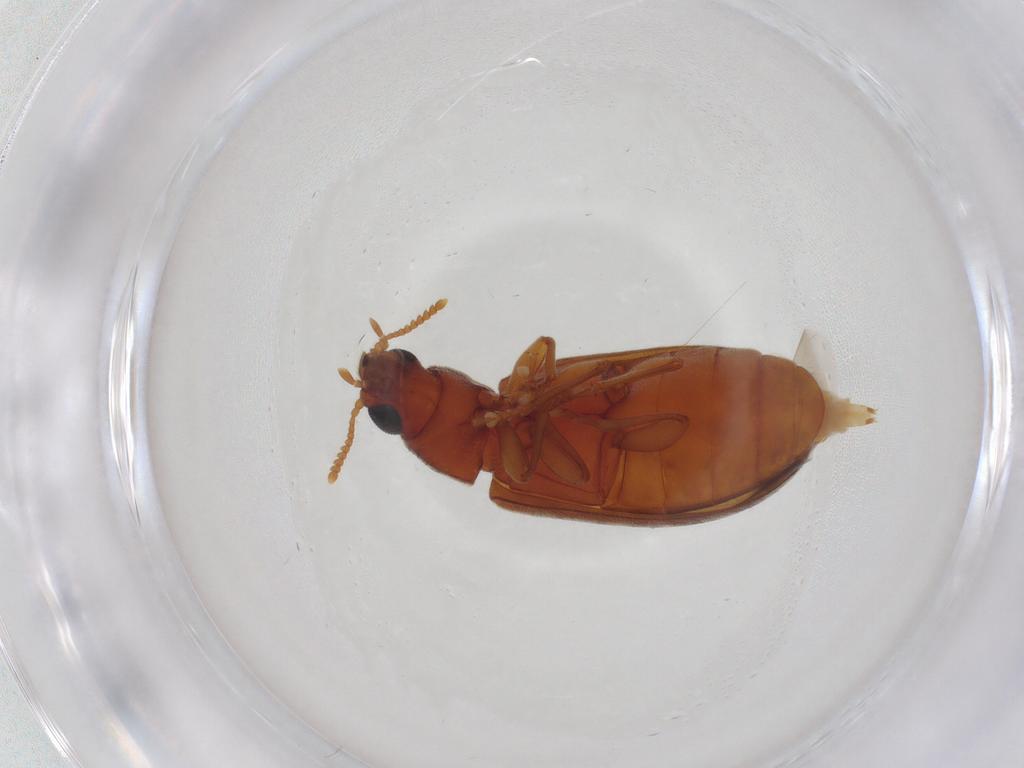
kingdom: Animalia
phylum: Arthropoda
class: Insecta
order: Coleoptera
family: Mycteridae
